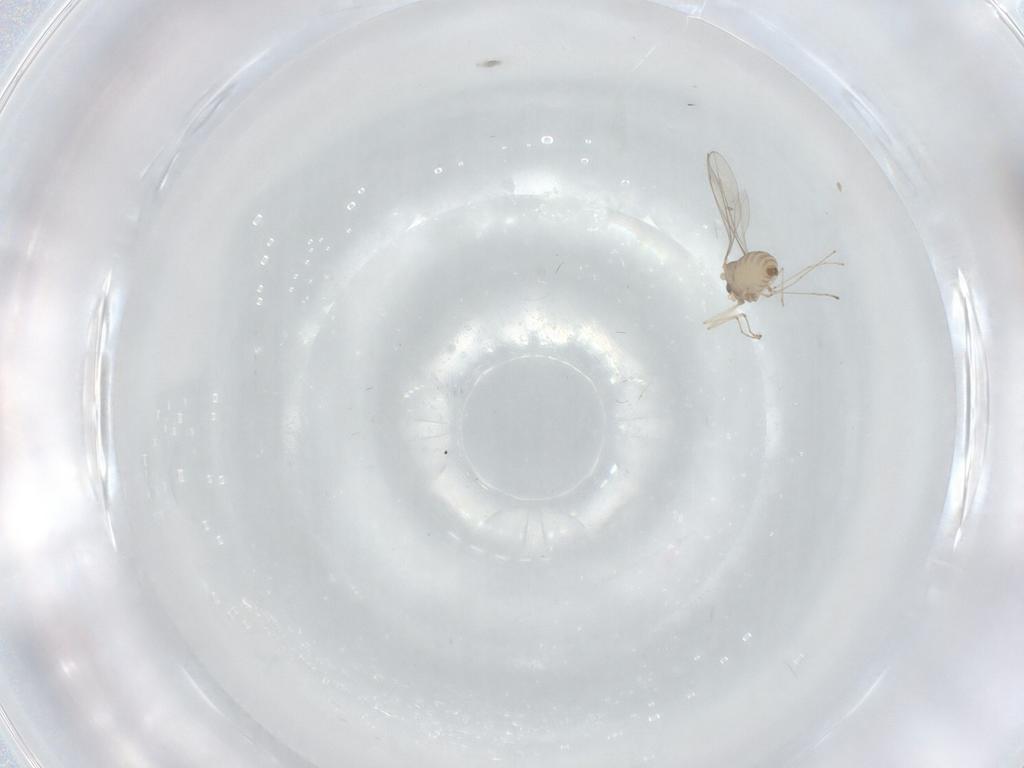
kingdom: Animalia
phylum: Arthropoda
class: Insecta
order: Diptera
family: Cecidomyiidae
